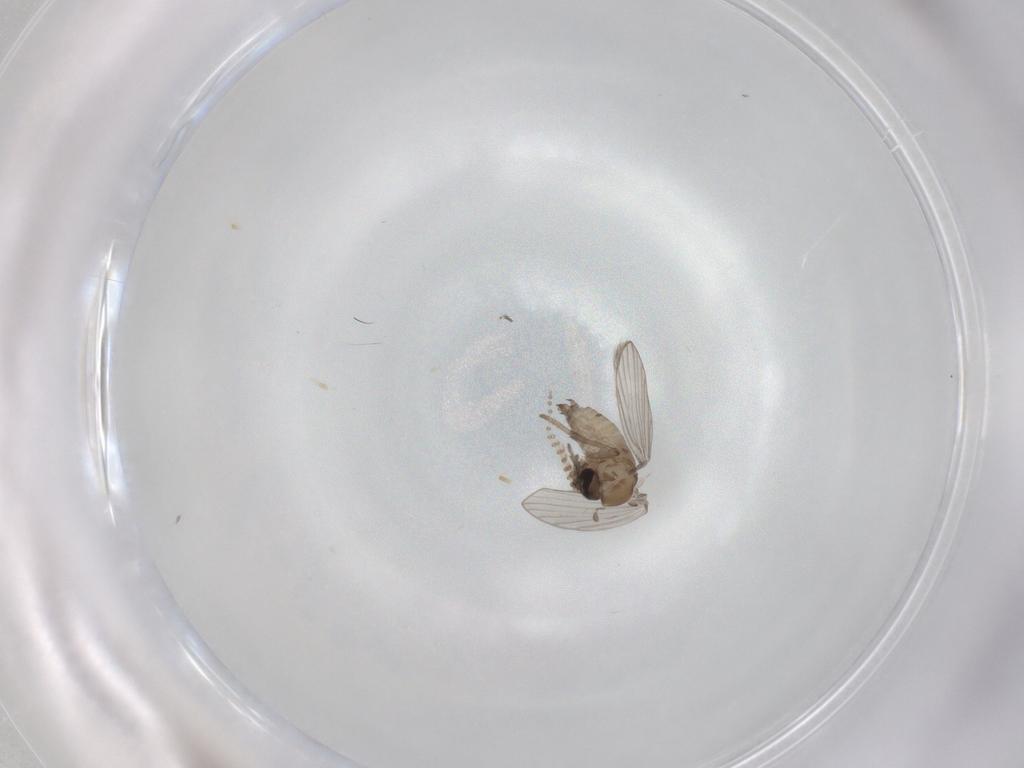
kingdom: Animalia
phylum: Arthropoda
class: Insecta
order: Diptera
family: Psychodidae
